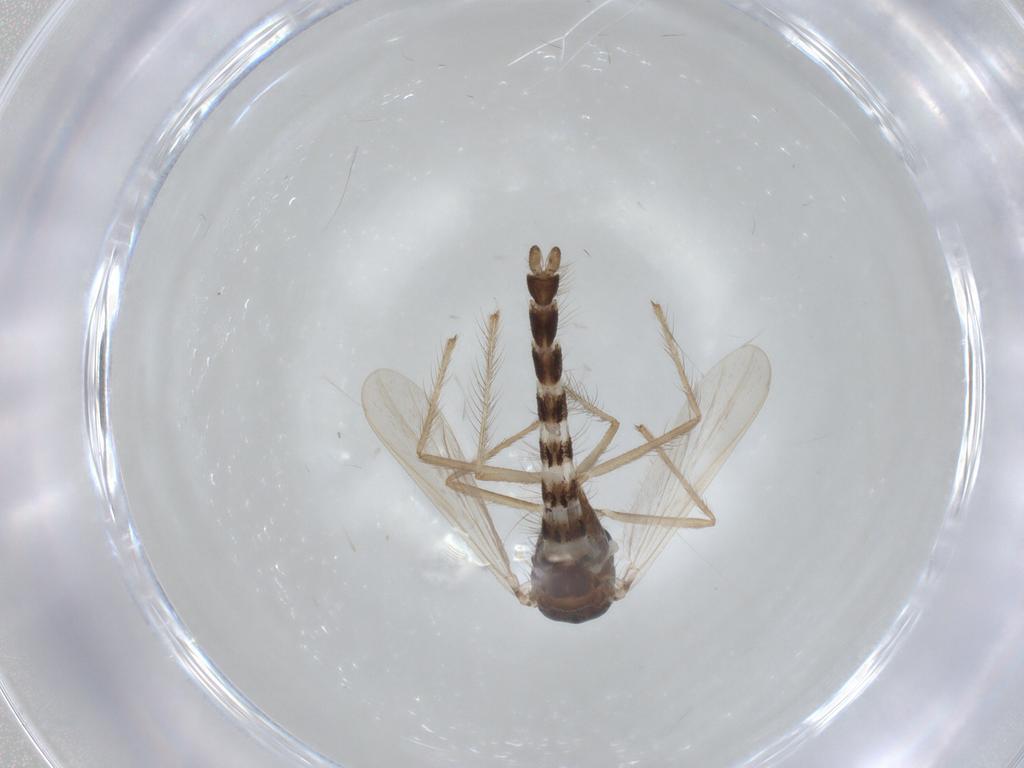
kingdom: Animalia
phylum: Arthropoda
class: Insecta
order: Diptera
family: Chironomidae
